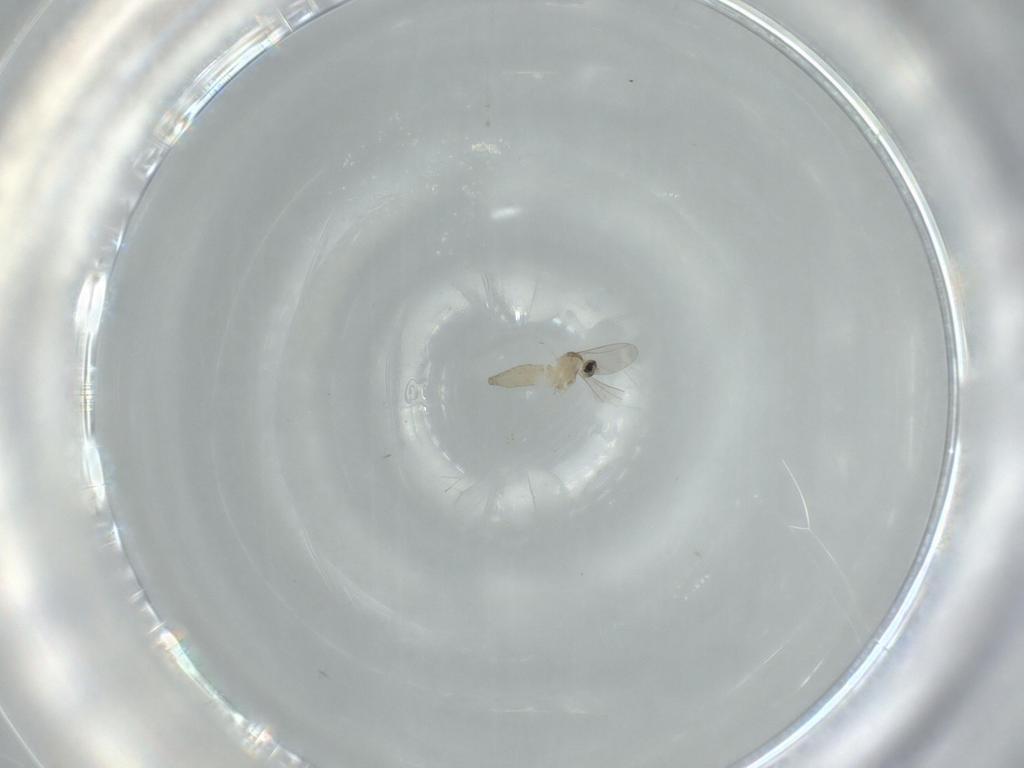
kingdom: Animalia
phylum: Arthropoda
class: Insecta
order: Diptera
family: Cecidomyiidae
